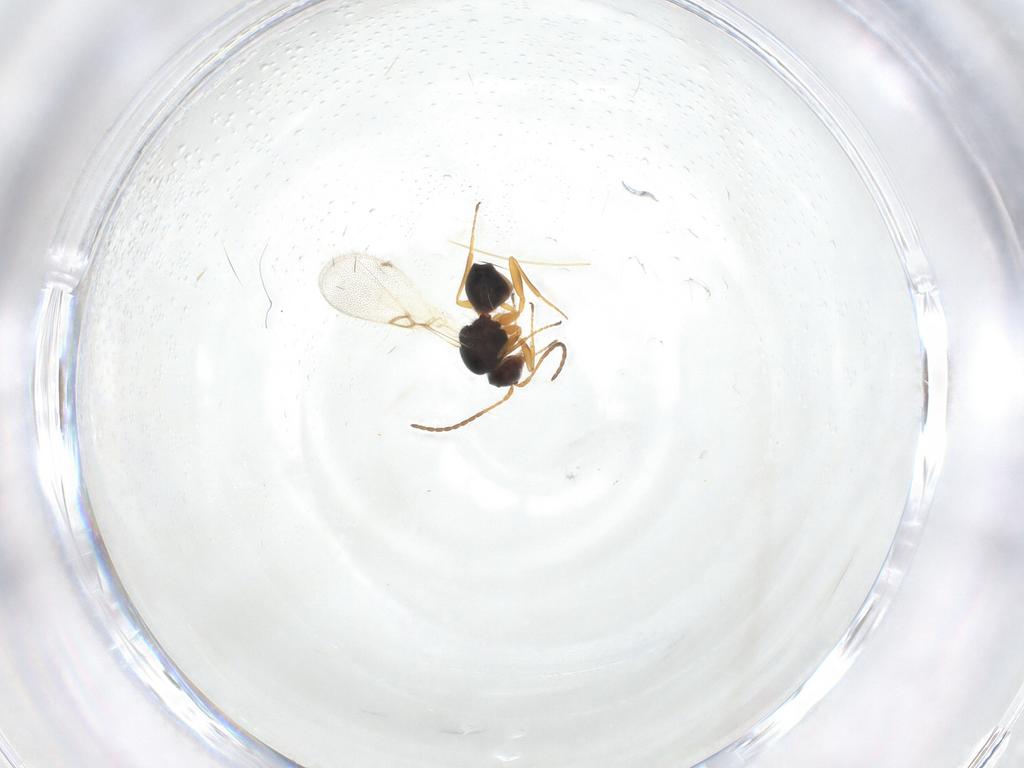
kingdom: Animalia
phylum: Arthropoda
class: Insecta
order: Hymenoptera
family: Figitidae
